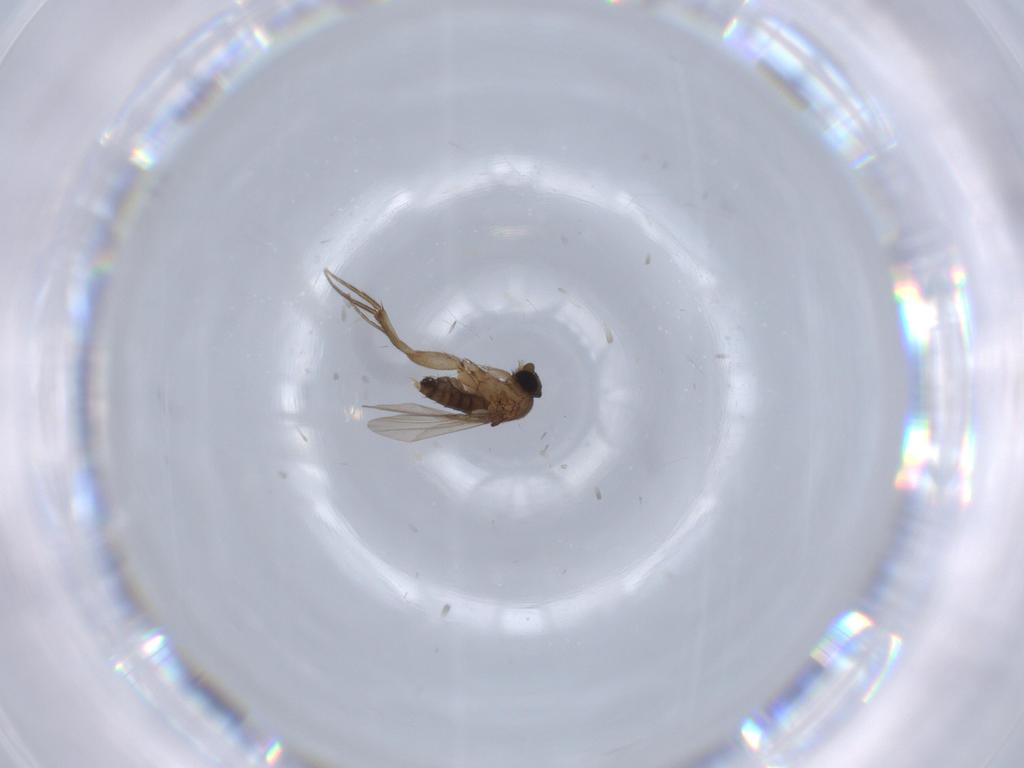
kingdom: Animalia
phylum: Arthropoda
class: Insecta
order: Diptera
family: Phoridae
